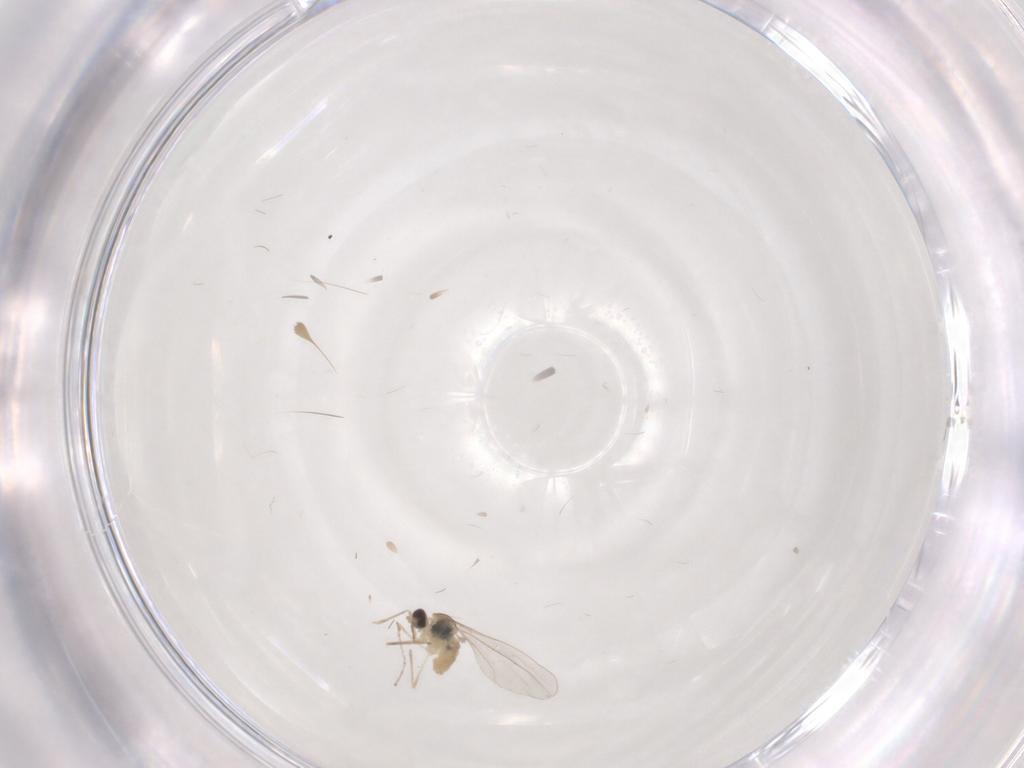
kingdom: Animalia
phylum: Arthropoda
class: Insecta
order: Diptera
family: Cecidomyiidae
